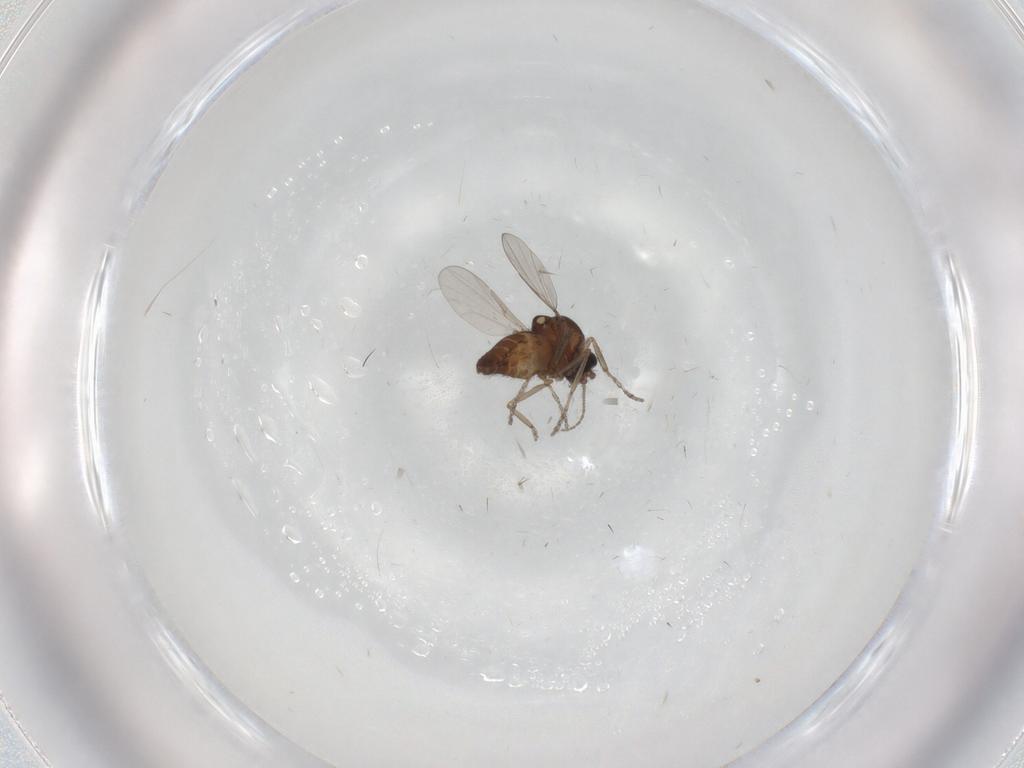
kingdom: Animalia
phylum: Arthropoda
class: Insecta
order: Diptera
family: Ceratopogonidae
